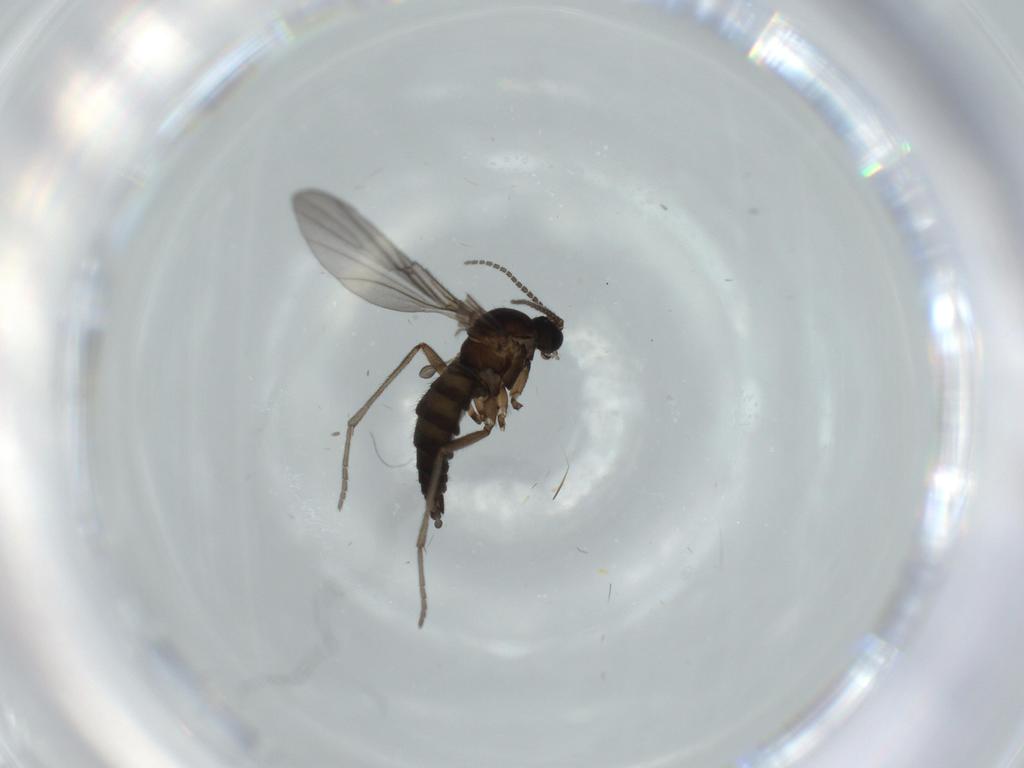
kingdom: Animalia
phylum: Arthropoda
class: Insecta
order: Diptera
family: Sciaridae
